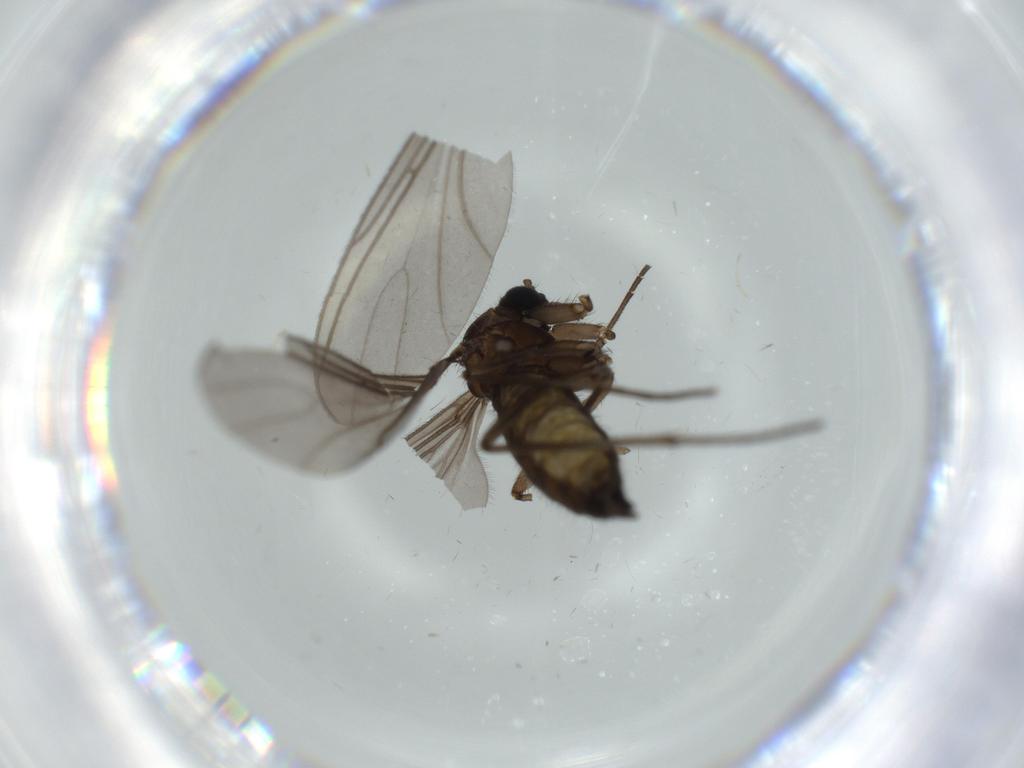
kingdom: Animalia
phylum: Arthropoda
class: Insecta
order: Diptera
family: Sciaridae
